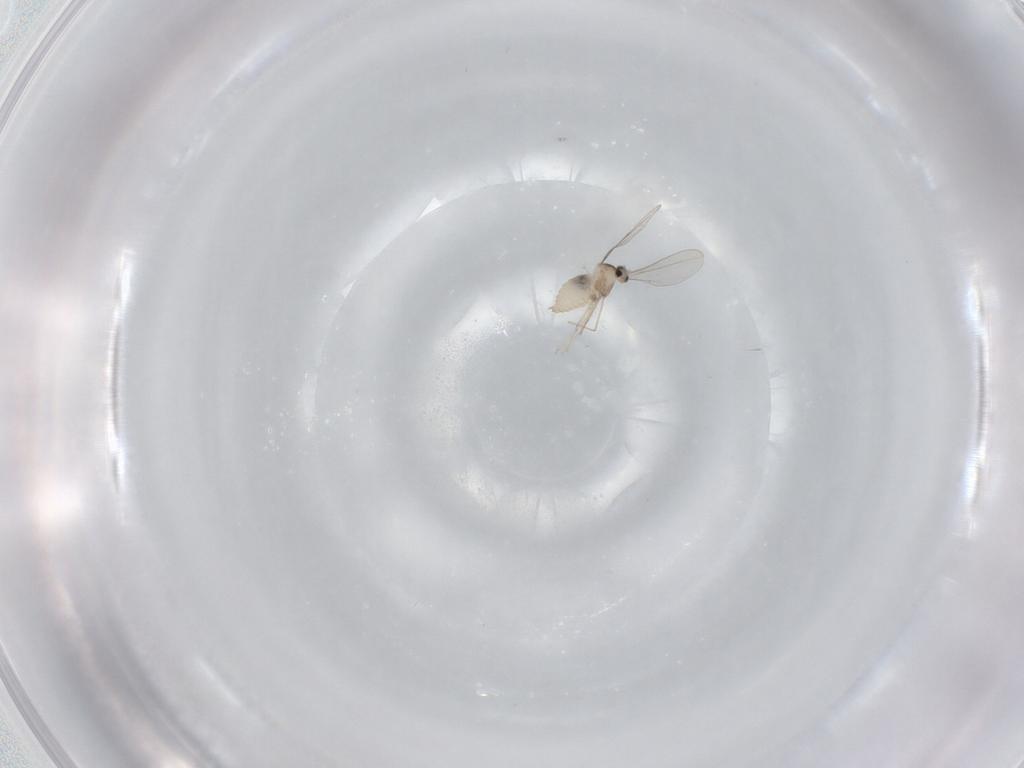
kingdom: Animalia
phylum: Arthropoda
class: Insecta
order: Diptera
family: Cecidomyiidae
